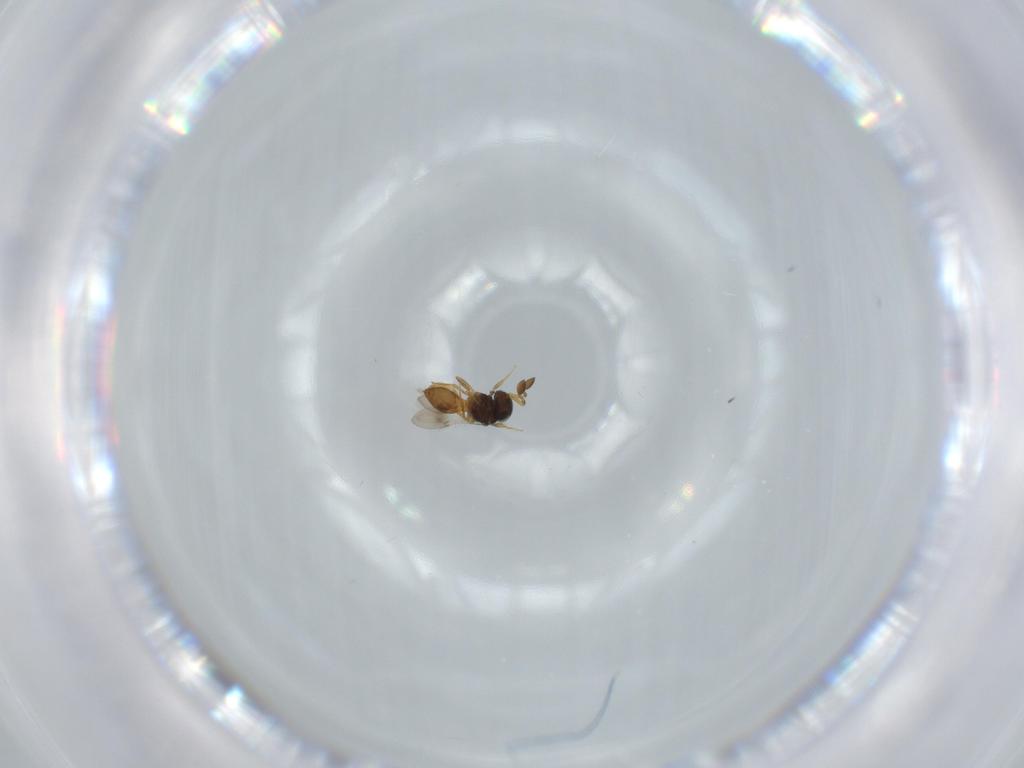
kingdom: Animalia
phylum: Arthropoda
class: Insecta
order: Hymenoptera
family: Scelionidae
